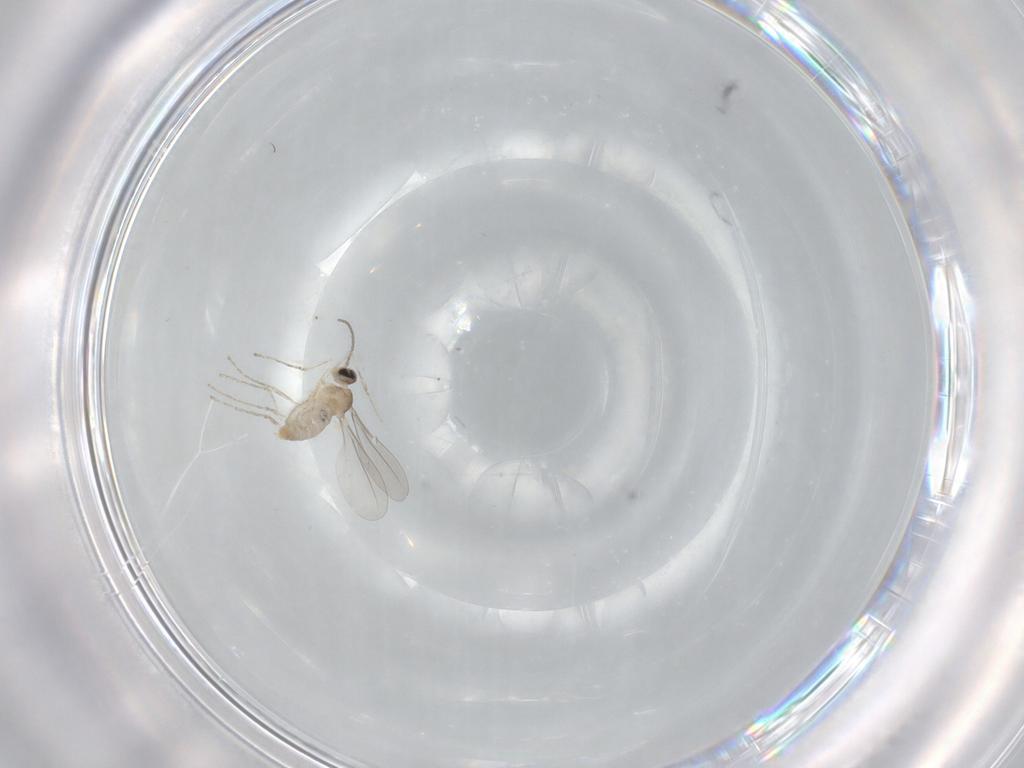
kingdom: Animalia
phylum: Arthropoda
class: Insecta
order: Diptera
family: Cecidomyiidae
